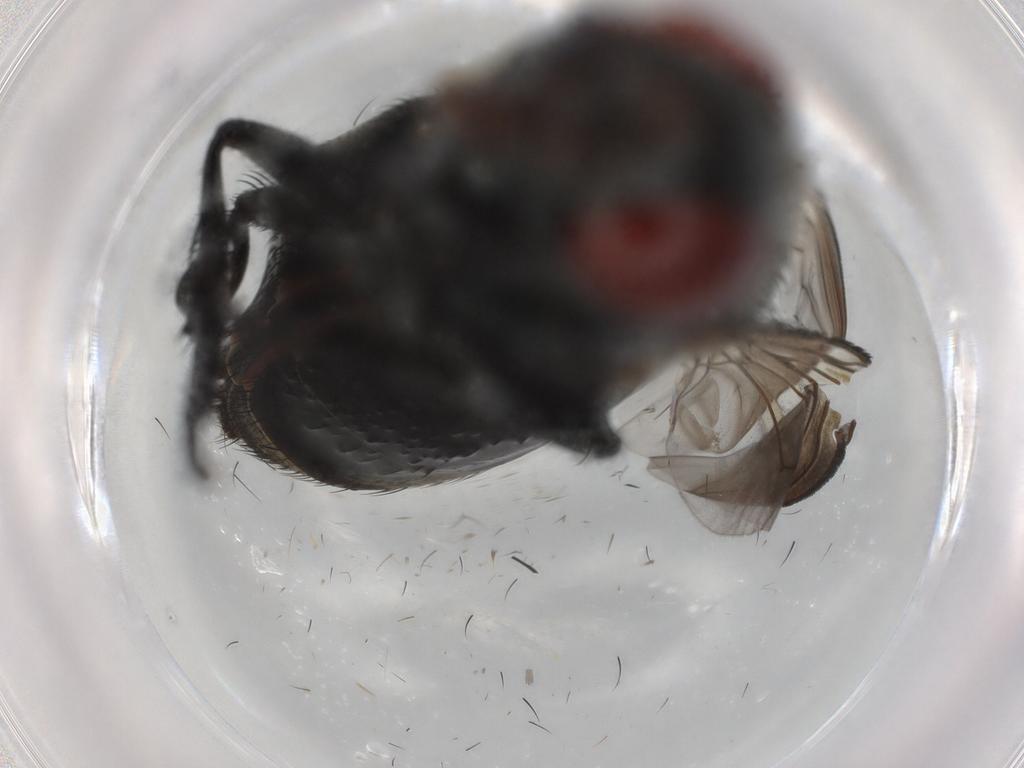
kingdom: Animalia
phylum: Arthropoda
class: Insecta
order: Diptera
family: Sarcophagidae
